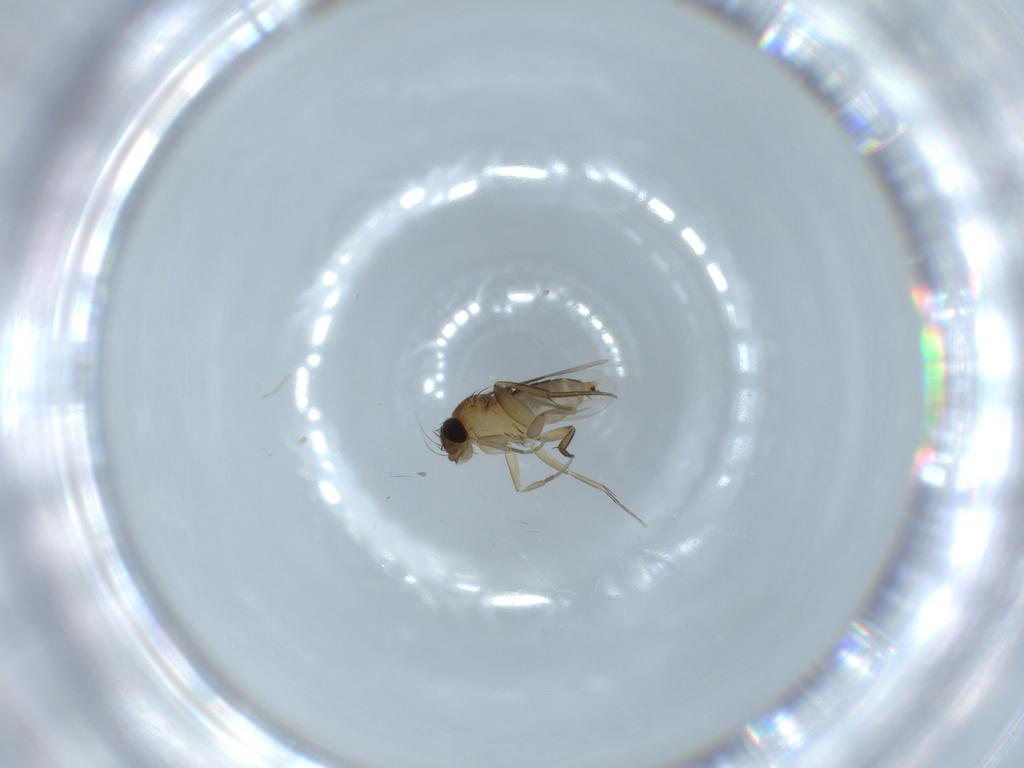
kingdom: Animalia
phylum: Arthropoda
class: Insecta
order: Diptera
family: Phoridae
